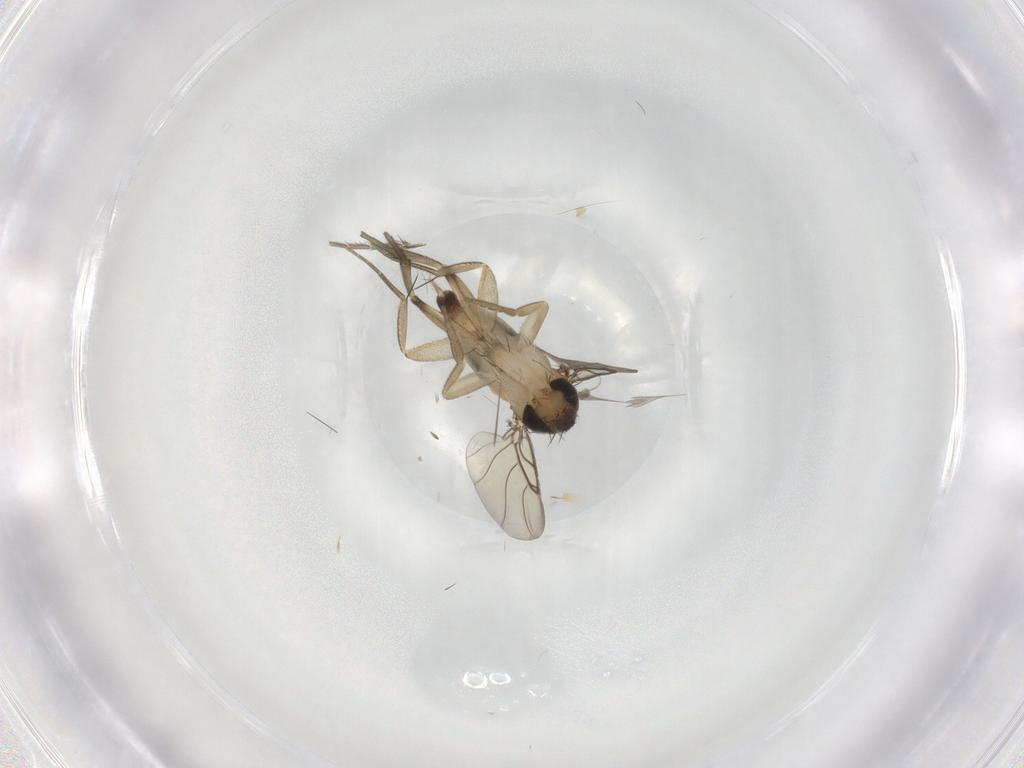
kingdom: Animalia
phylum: Arthropoda
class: Insecta
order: Diptera
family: Mycetophilidae
